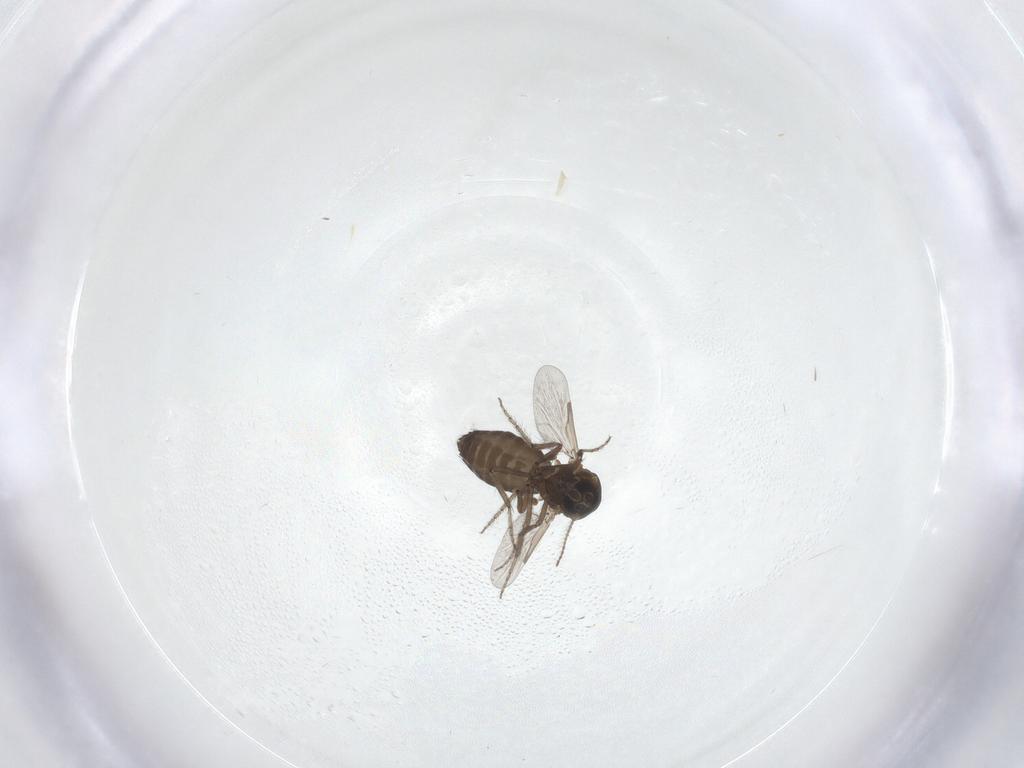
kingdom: Animalia
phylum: Arthropoda
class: Insecta
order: Diptera
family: Ceratopogonidae
